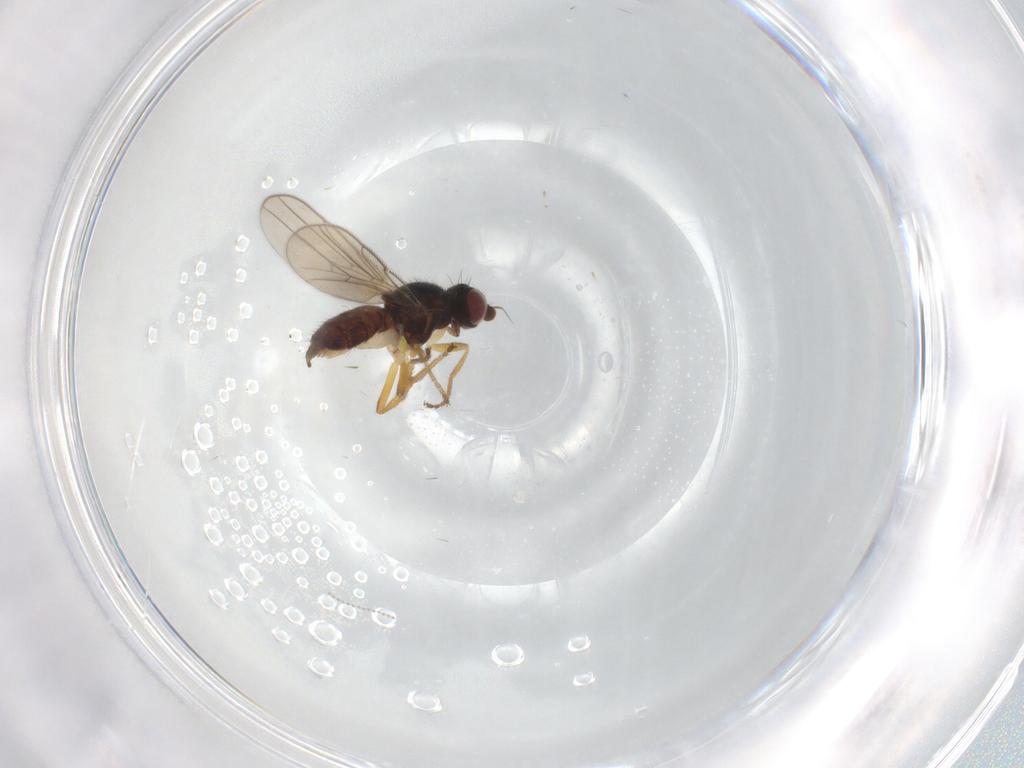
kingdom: Animalia
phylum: Arthropoda
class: Insecta
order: Diptera
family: Chloropidae
